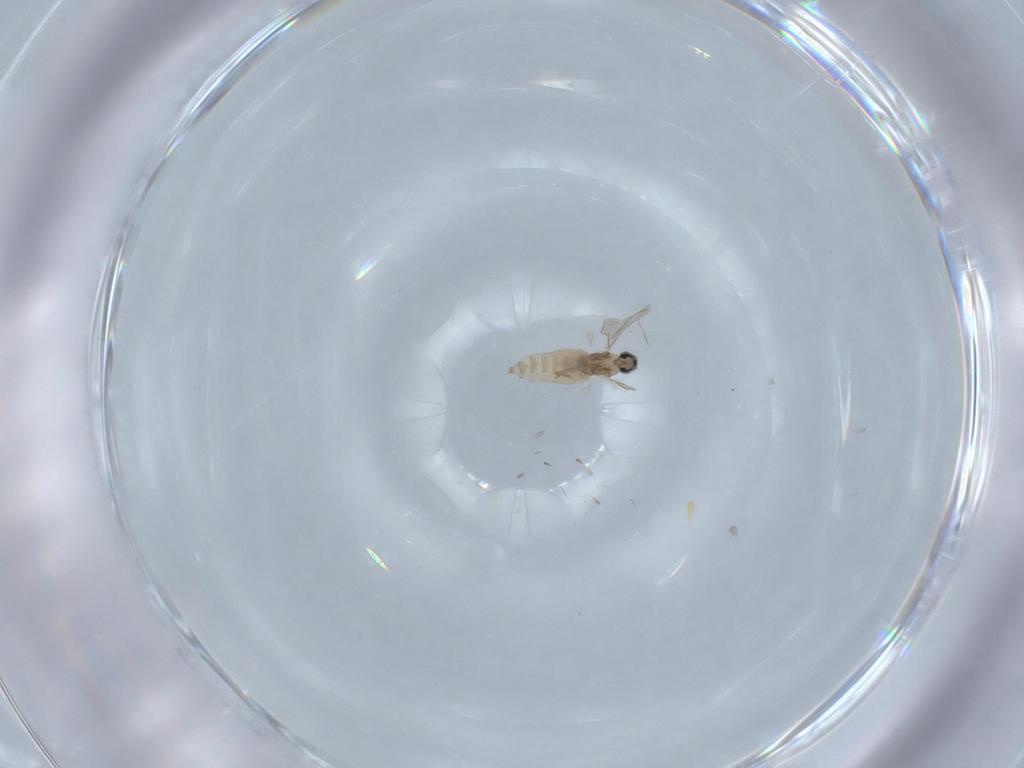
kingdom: Animalia
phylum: Arthropoda
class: Insecta
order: Diptera
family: Cecidomyiidae
